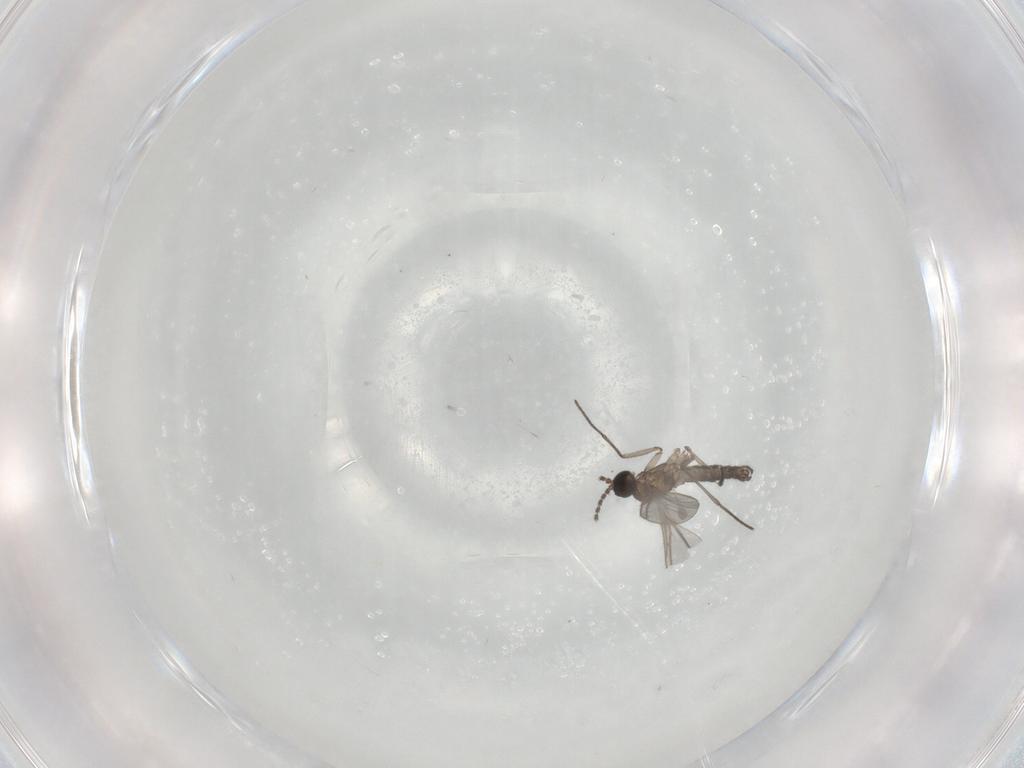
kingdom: Animalia
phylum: Arthropoda
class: Insecta
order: Diptera
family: Cecidomyiidae
